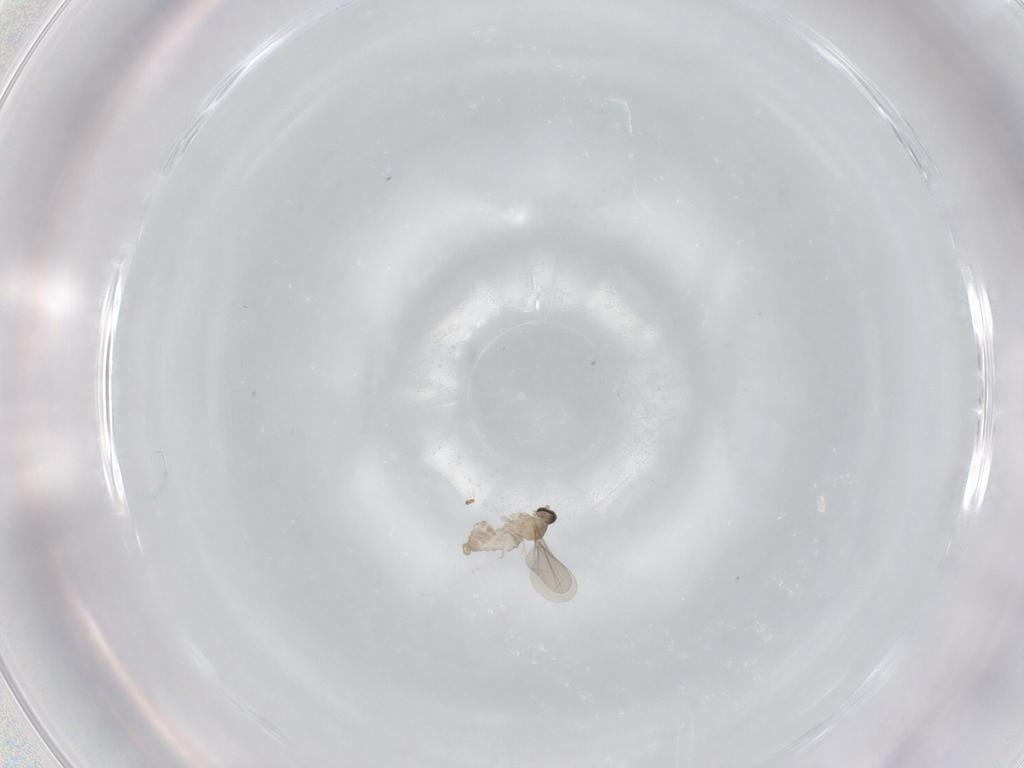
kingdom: Animalia
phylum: Arthropoda
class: Insecta
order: Diptera
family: Cecidomyiidae
